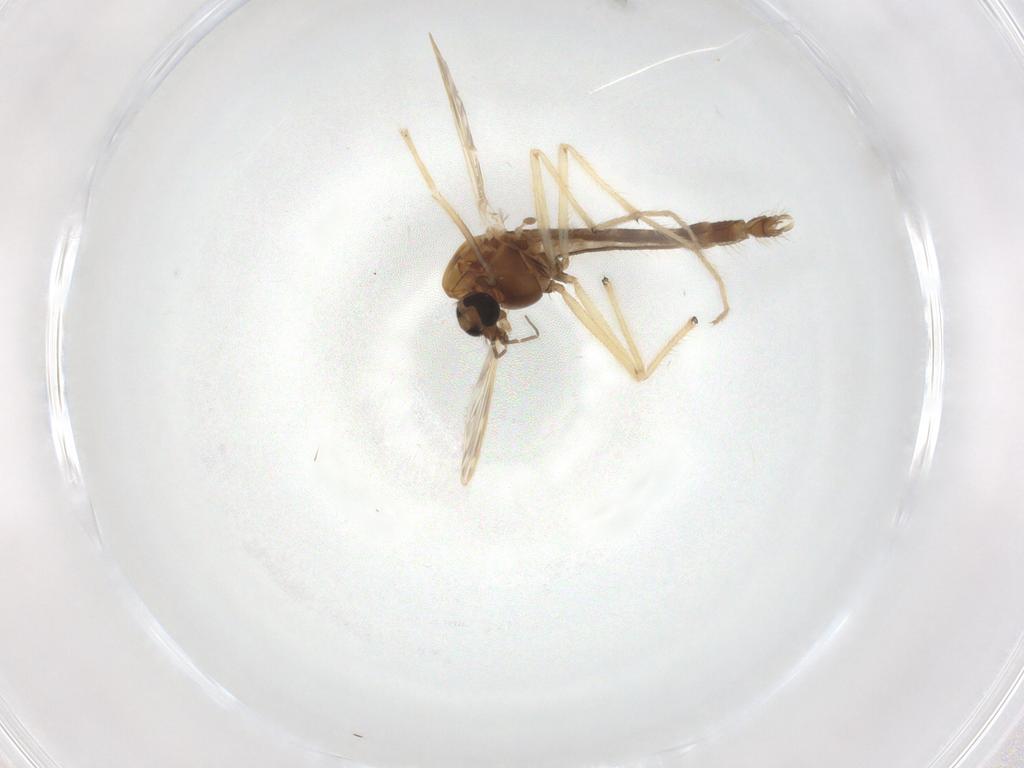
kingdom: Animalia
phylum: Arthropoda
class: Insecta
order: Diptera
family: Chironomidae
